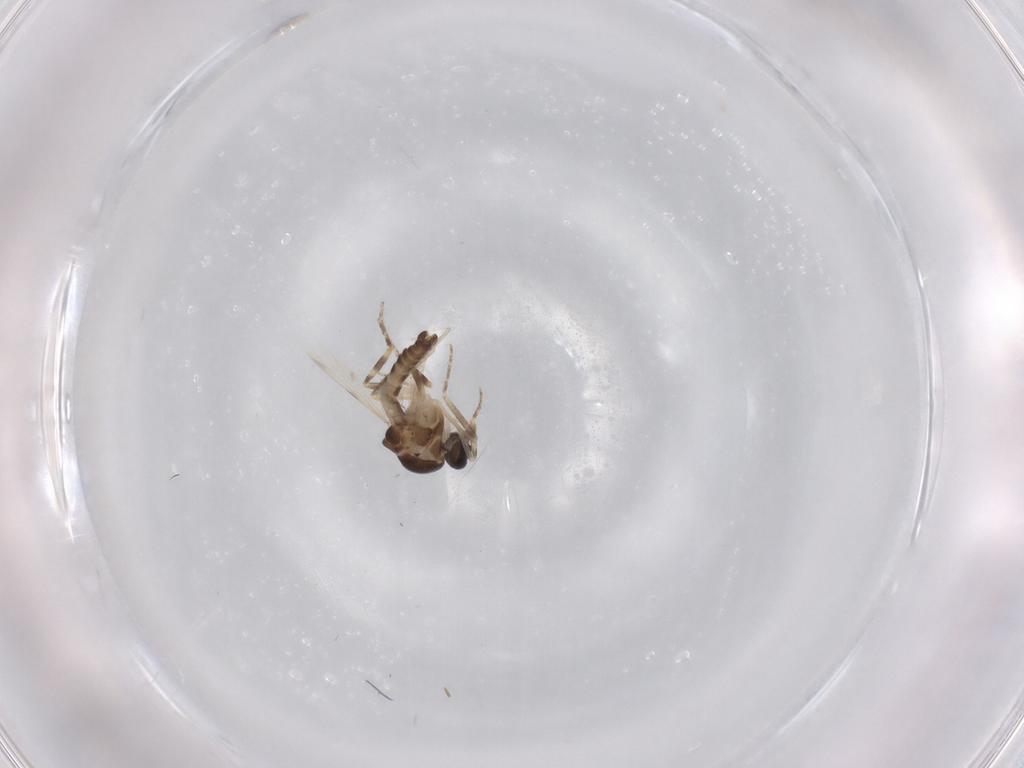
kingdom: Animalia
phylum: Arthropoda
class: Insecta
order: Diptera
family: Ceratopogonidae
